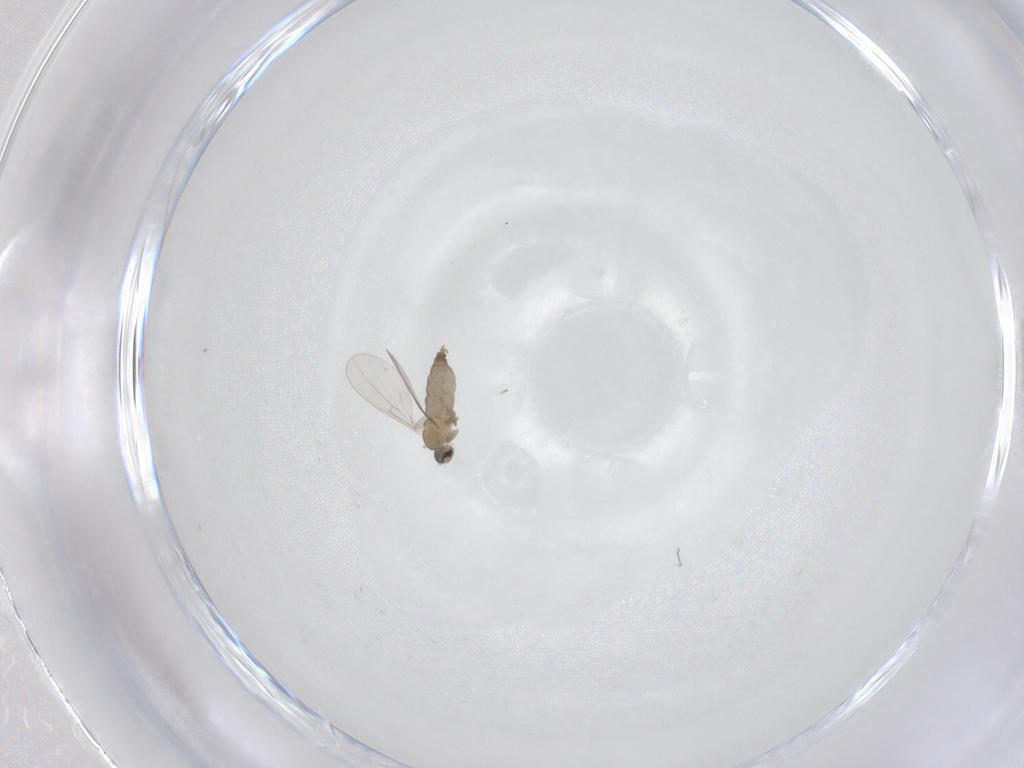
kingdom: Animalia
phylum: Arthropoda
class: Insecta
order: Diptera
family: Cecidomyiidae
